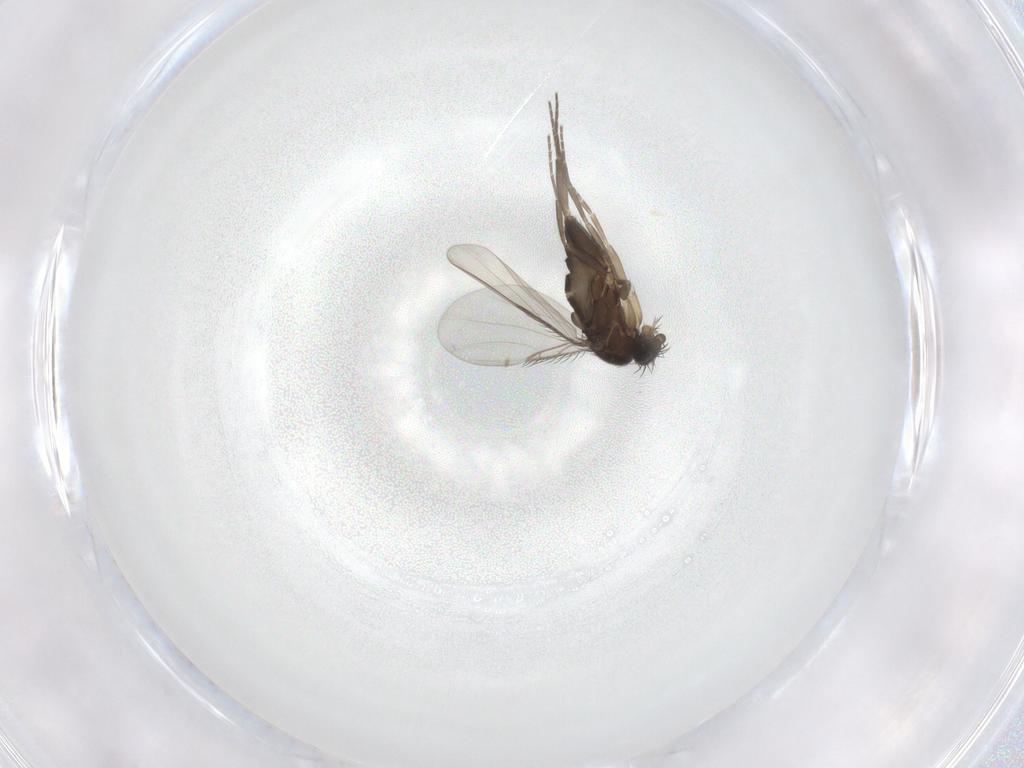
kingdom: Animalia
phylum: Arthropoda
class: Insecta
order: Diptera
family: Phoridae
